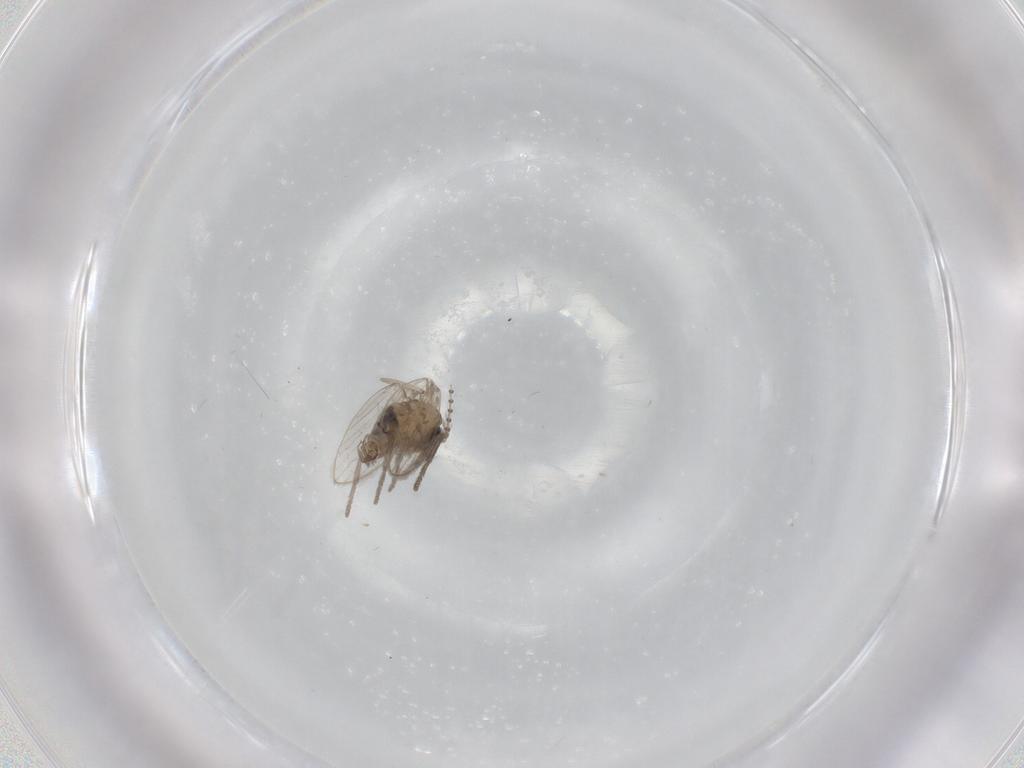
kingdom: Animalia
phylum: Arthropoda
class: Insecta
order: Diptera
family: Psychodidae
